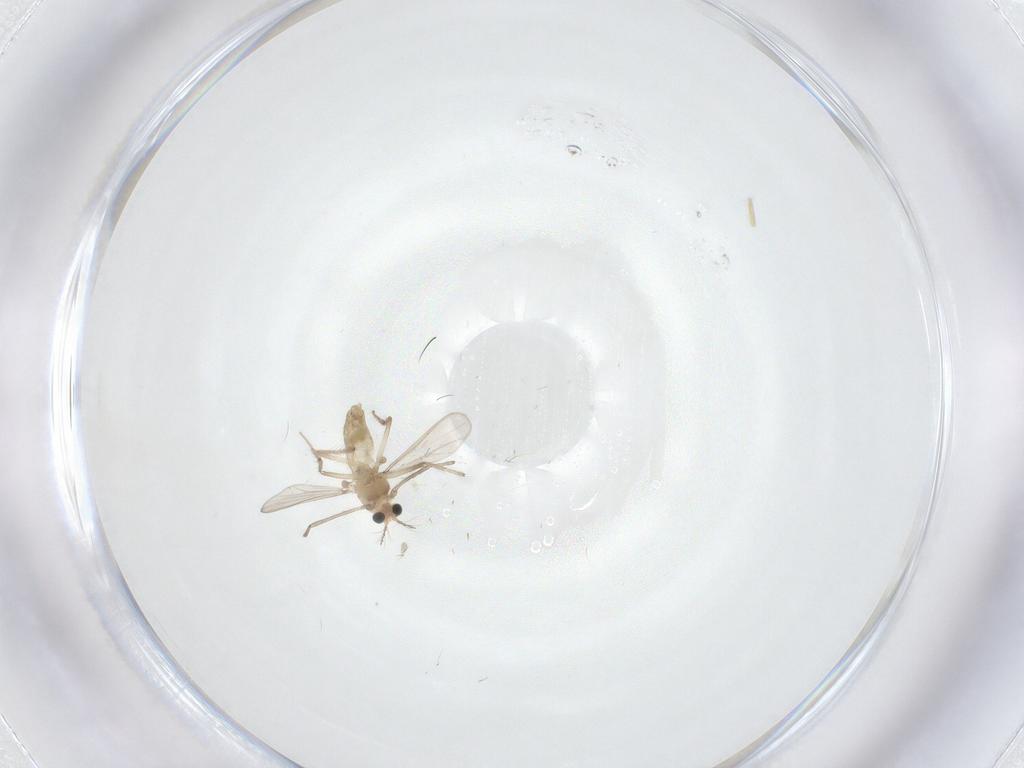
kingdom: Animalia
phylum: Arthropoda
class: Insecta
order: Diptera
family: Chironomidae
